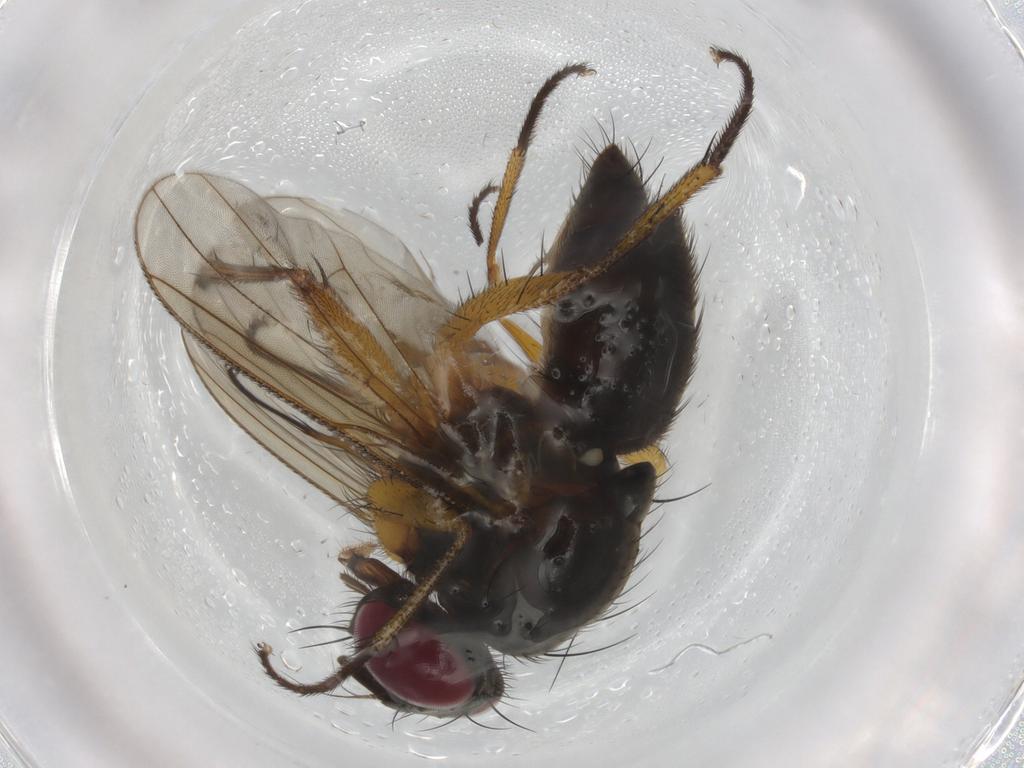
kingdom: Animalia
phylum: Arthropoda
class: Insecta
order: Diptera
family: Muscidae
